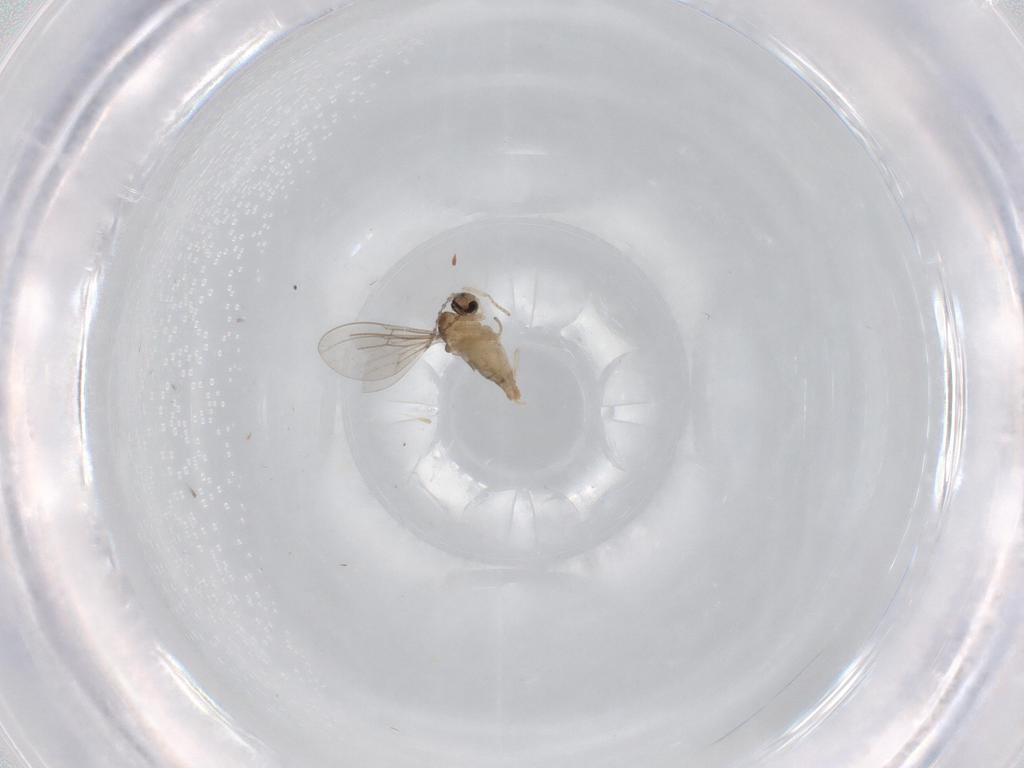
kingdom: Animalia
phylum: Arthropoda
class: Insecta
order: Diptera
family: Cecidomyiidae
